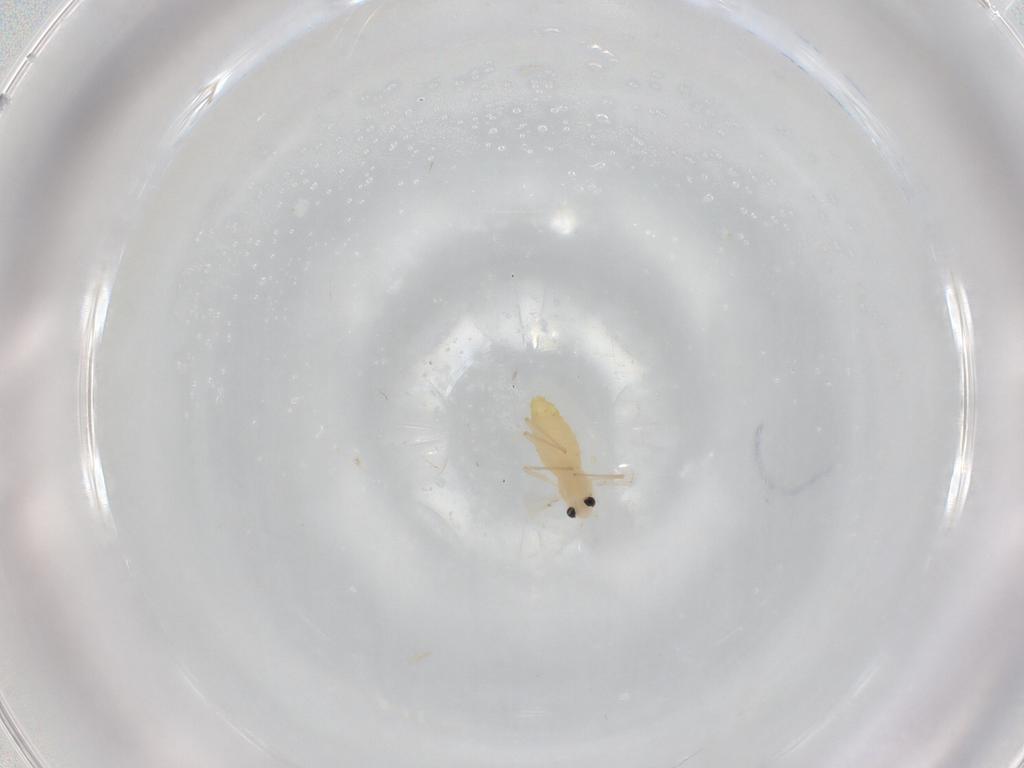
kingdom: Animalia
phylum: Arthropoda
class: Insecta
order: Diptera
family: Chironomidae
